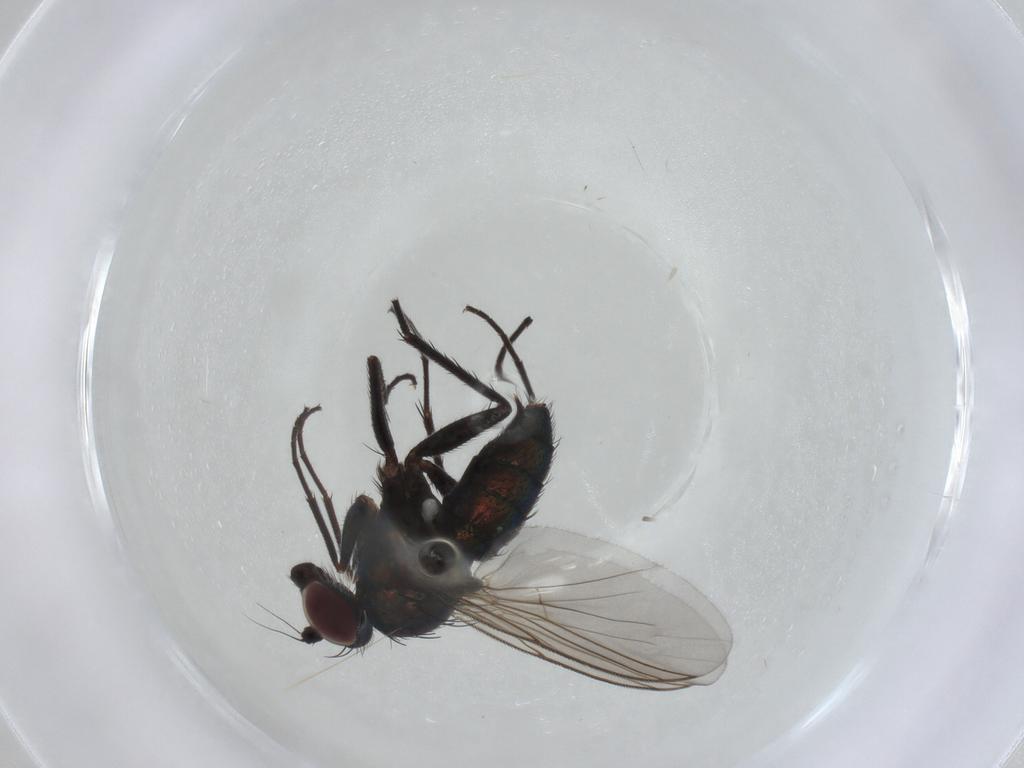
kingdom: Animalia
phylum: Arthropoda
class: Insecta
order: Diptera
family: Dolichopodidae
